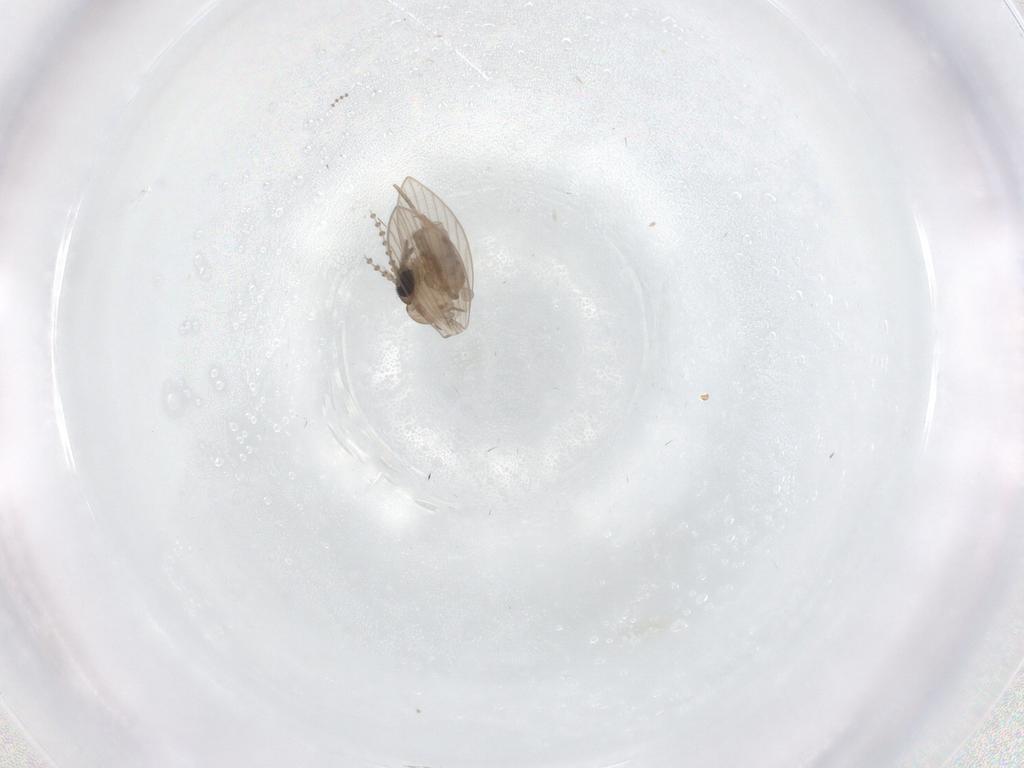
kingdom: Animalia
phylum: Arthropoda
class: Insecta
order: Diptera
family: Psychodidae
